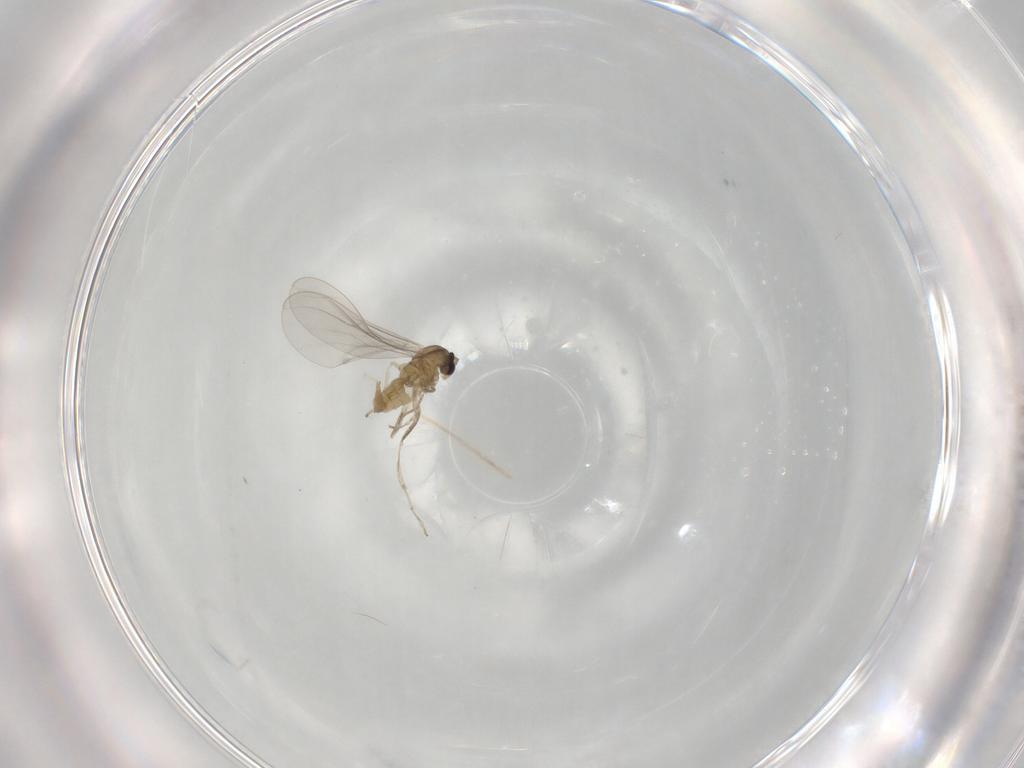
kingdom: Animalia
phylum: Arthropoda
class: Insecta
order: Diptera
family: Cecidomyiidae
